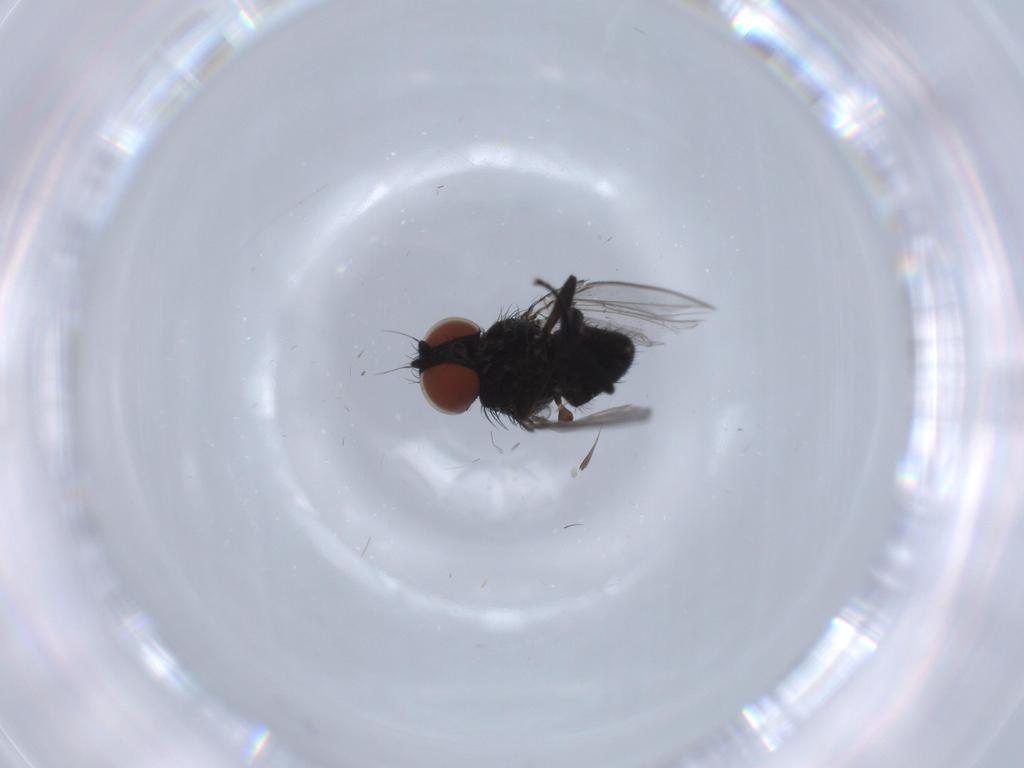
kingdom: Animalia
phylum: Arthropoda
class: Insecta
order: Diptera
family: Milichiidae
